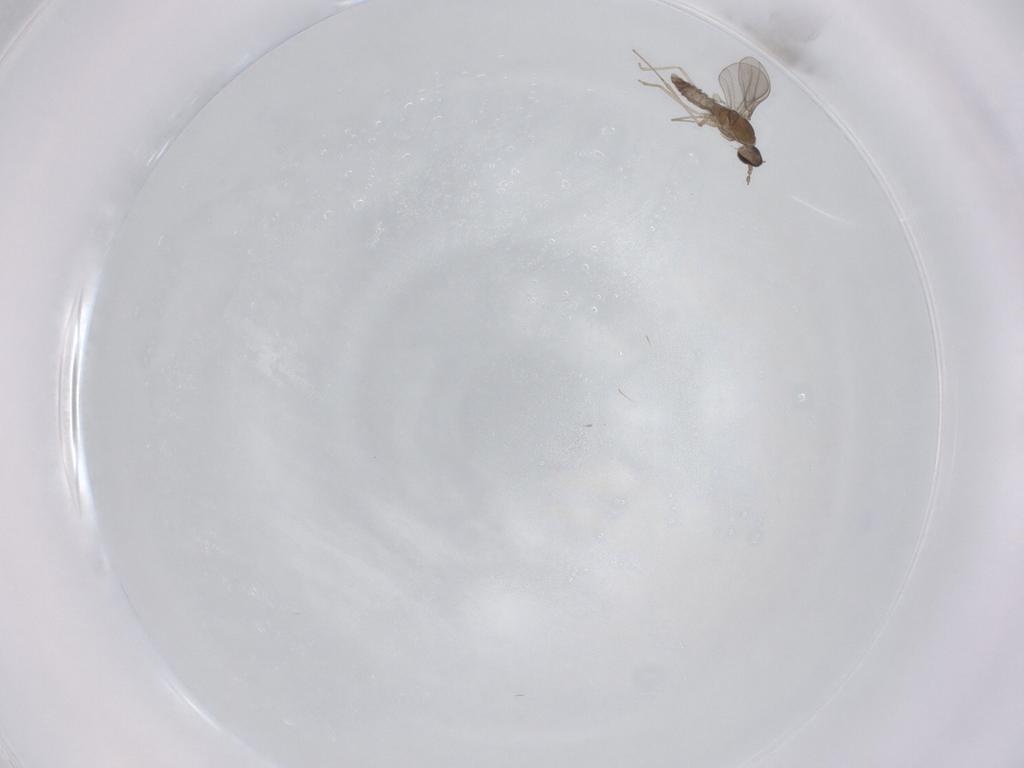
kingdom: Animalia
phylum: Arthropoda
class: Insecta
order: Diptera
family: Cecidomyiidae
